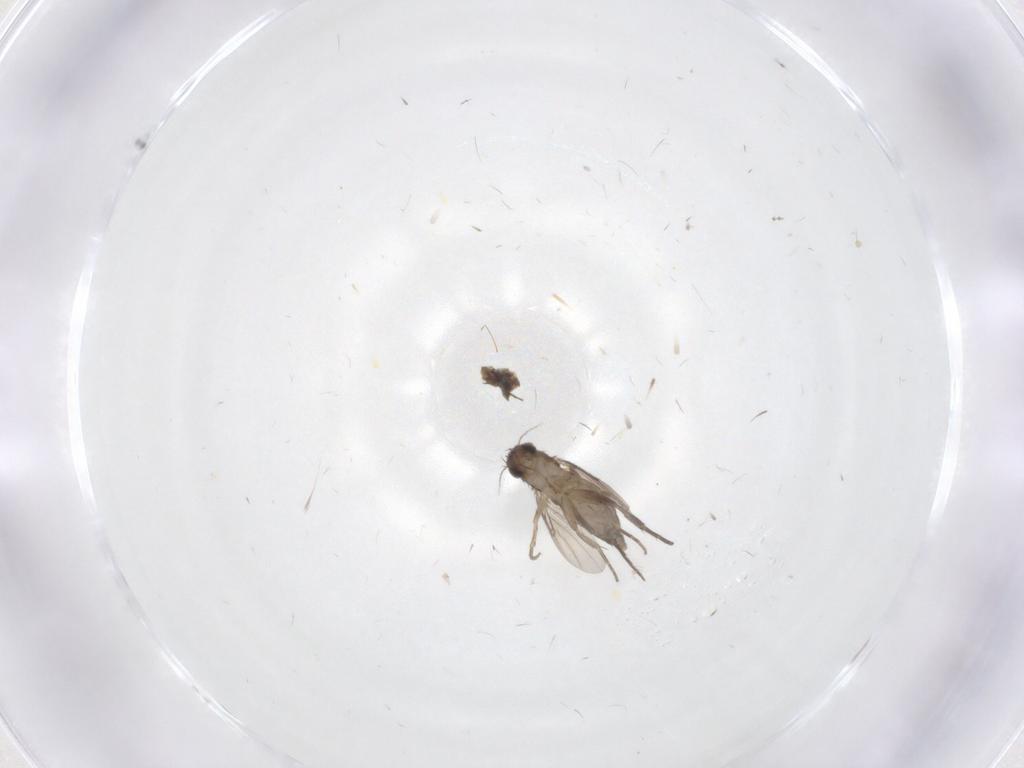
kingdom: Animalia
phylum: Arthropoda
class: Insecta
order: Diptera
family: Phoridae
